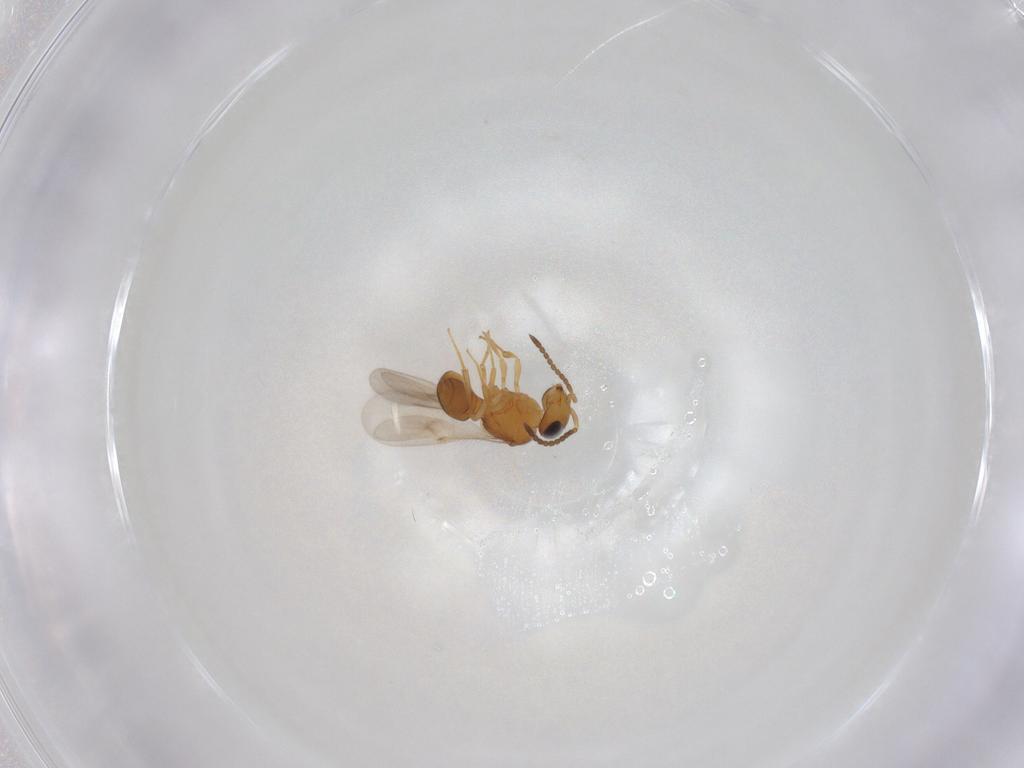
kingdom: Animalia
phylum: Arthropoda
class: Insecta
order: Hymenoptera
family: Scelionidae
